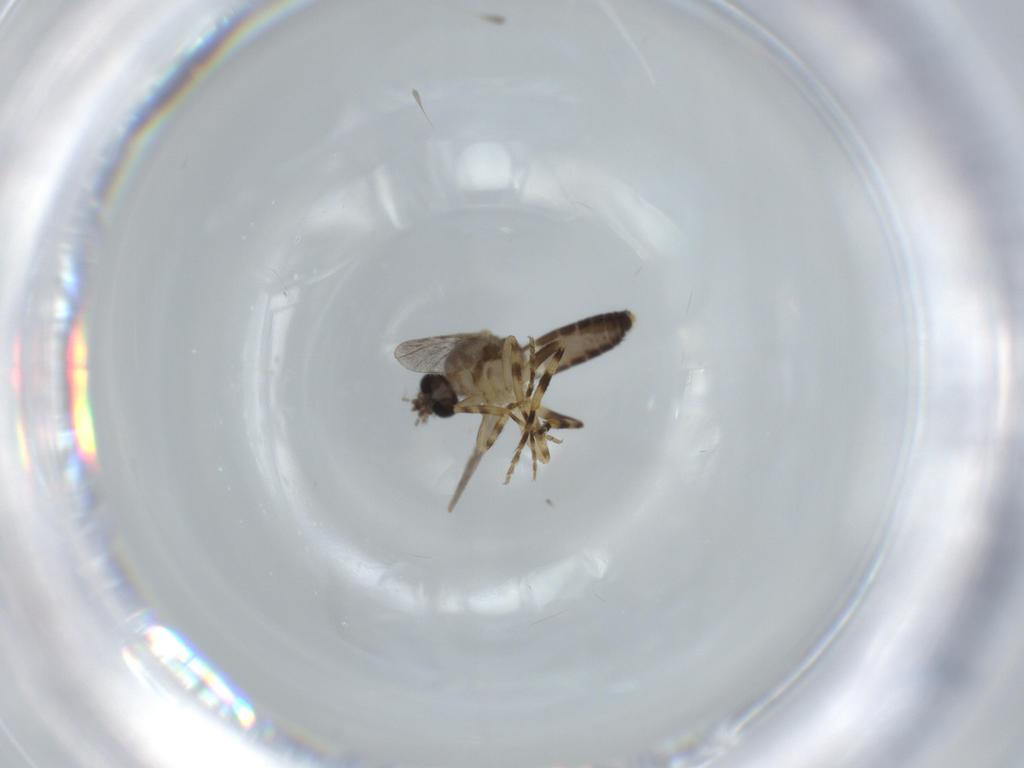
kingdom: Animalia
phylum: Arthropoda
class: Insecta
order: Diptera
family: Ceratopogonidae
